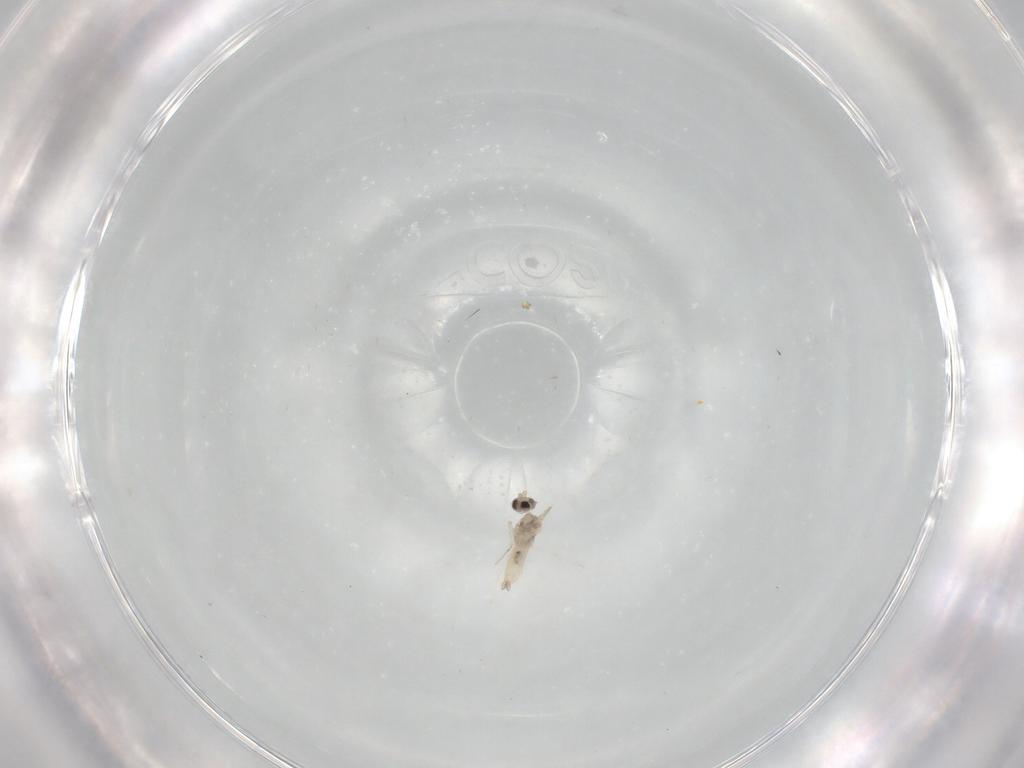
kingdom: Animalia
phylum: Arthropoda
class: Insecta
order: Diptera
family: Cecidomyiidae
